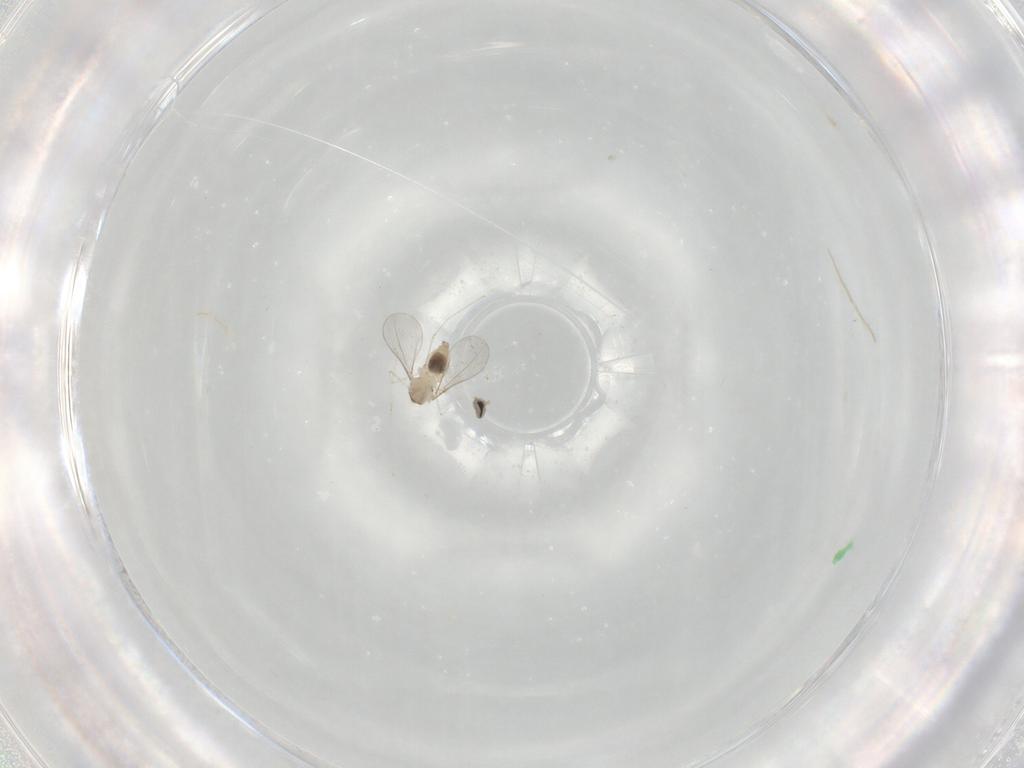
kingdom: Animalia
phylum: Arthropoda
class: Insecta
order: Diptera
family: Cecidomyiidae
